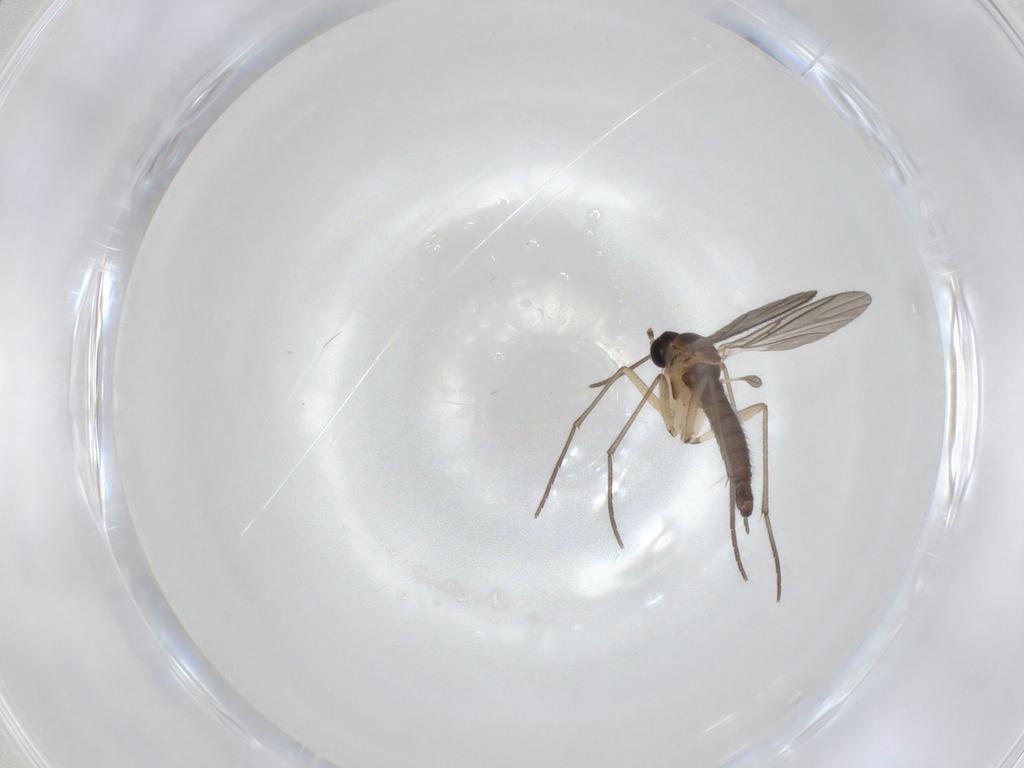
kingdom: Animalia
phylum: Arthropoda
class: Insecta
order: Diptera
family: Sciaridae
